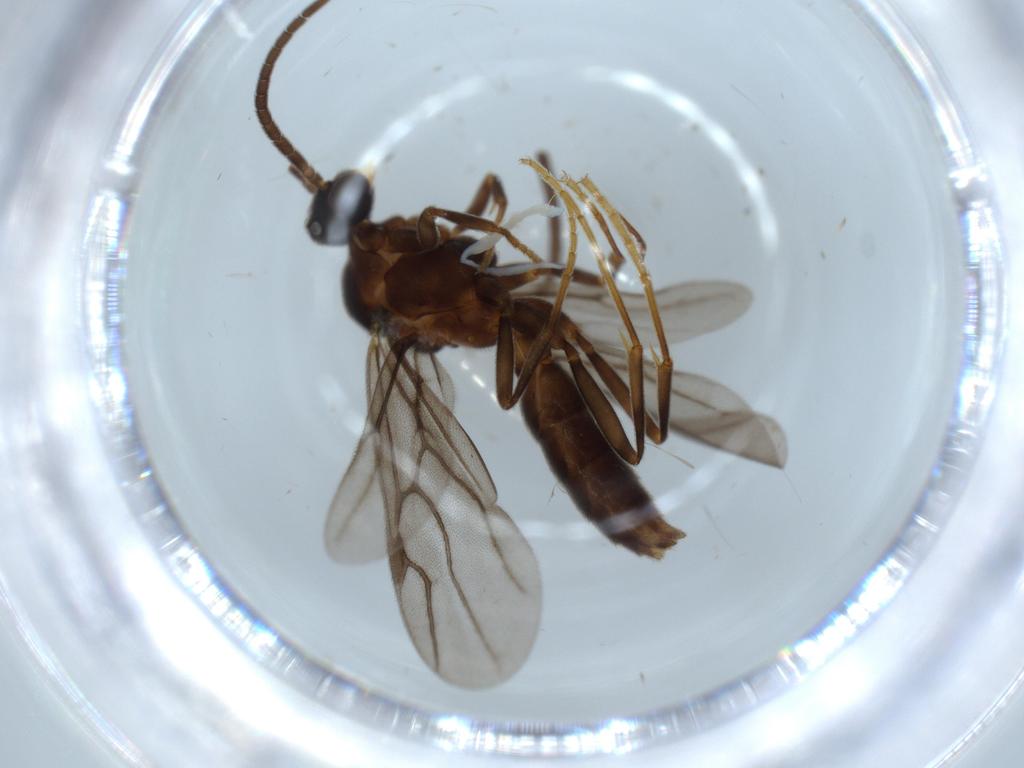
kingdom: Animalia
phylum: Arthropoda
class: Insecta
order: Hymenoptera
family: Formicidae
